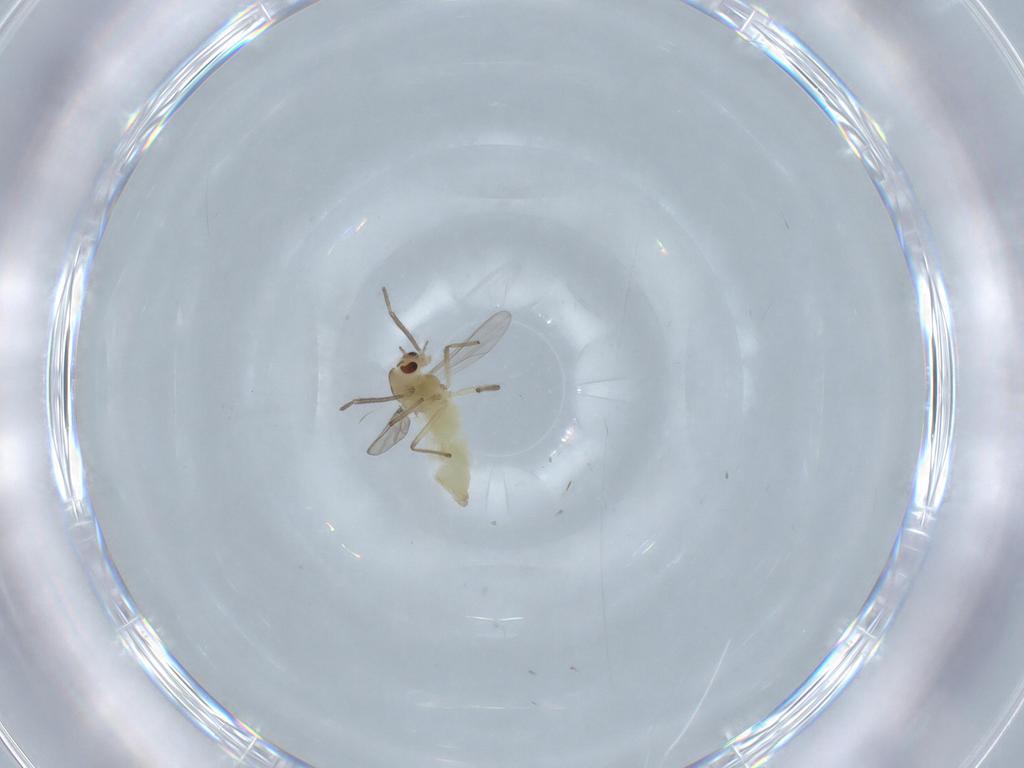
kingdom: Animalia
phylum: Arthropoda
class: Insecta
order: Diptera
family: Chironomidae
